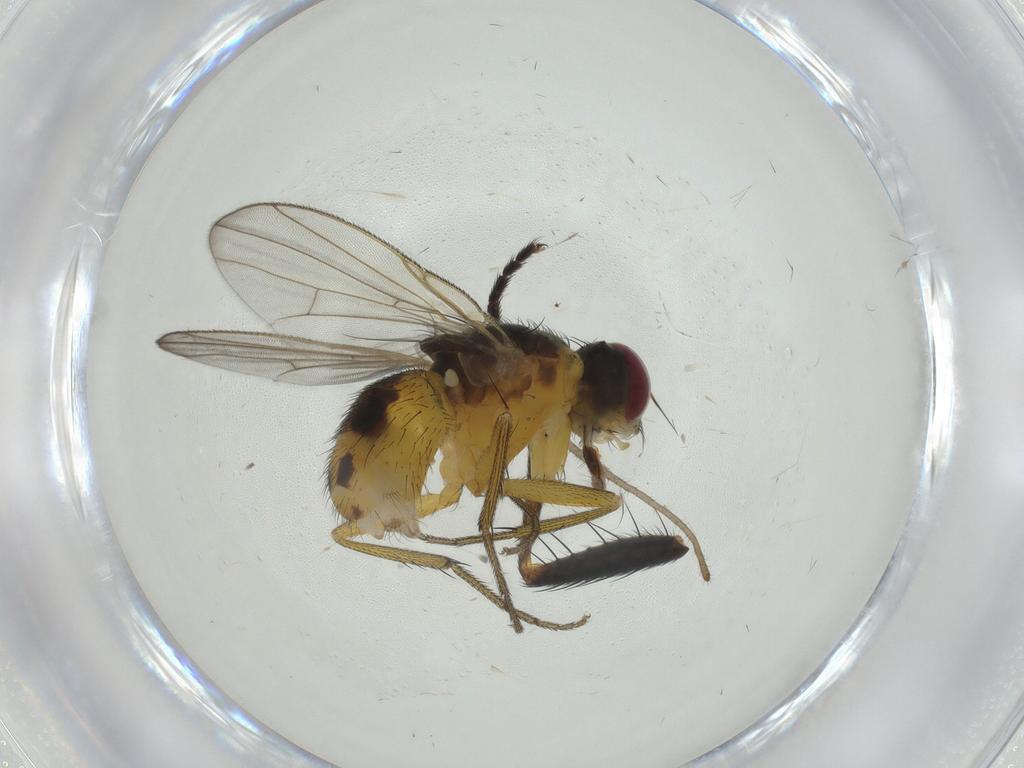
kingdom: Animalia
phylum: Arthropoda
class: Insecta
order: Diptera
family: Muscidae
